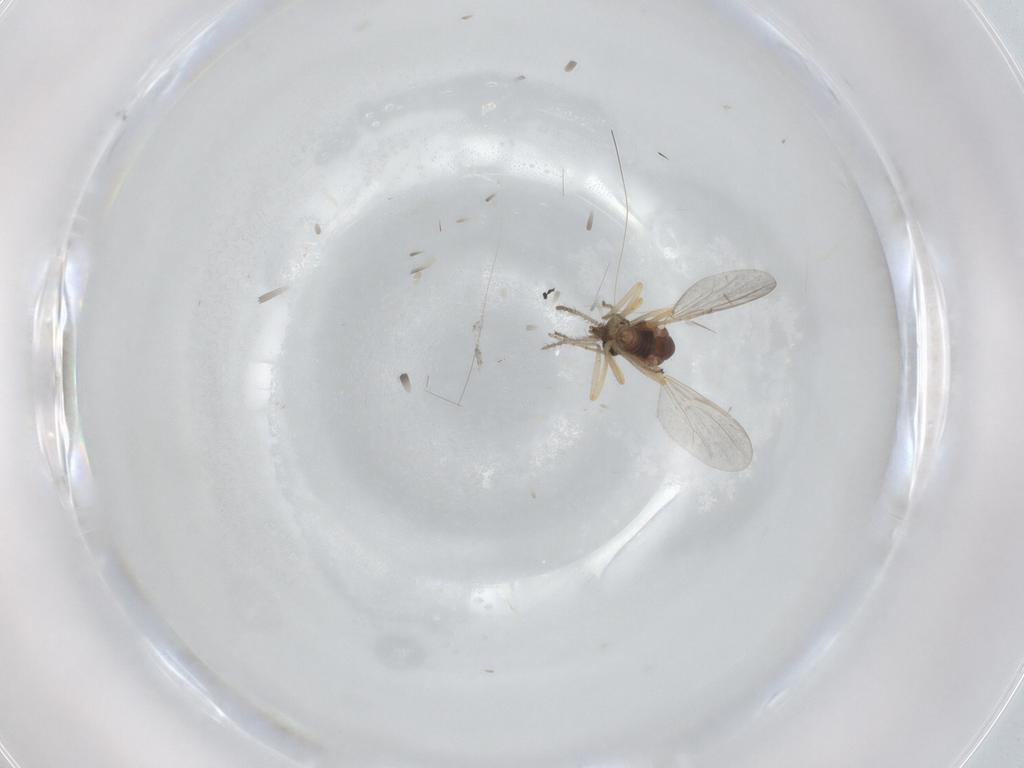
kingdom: Animalia
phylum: Arthropoda
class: Insecta
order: Diptera
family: Ceratopogonidae
